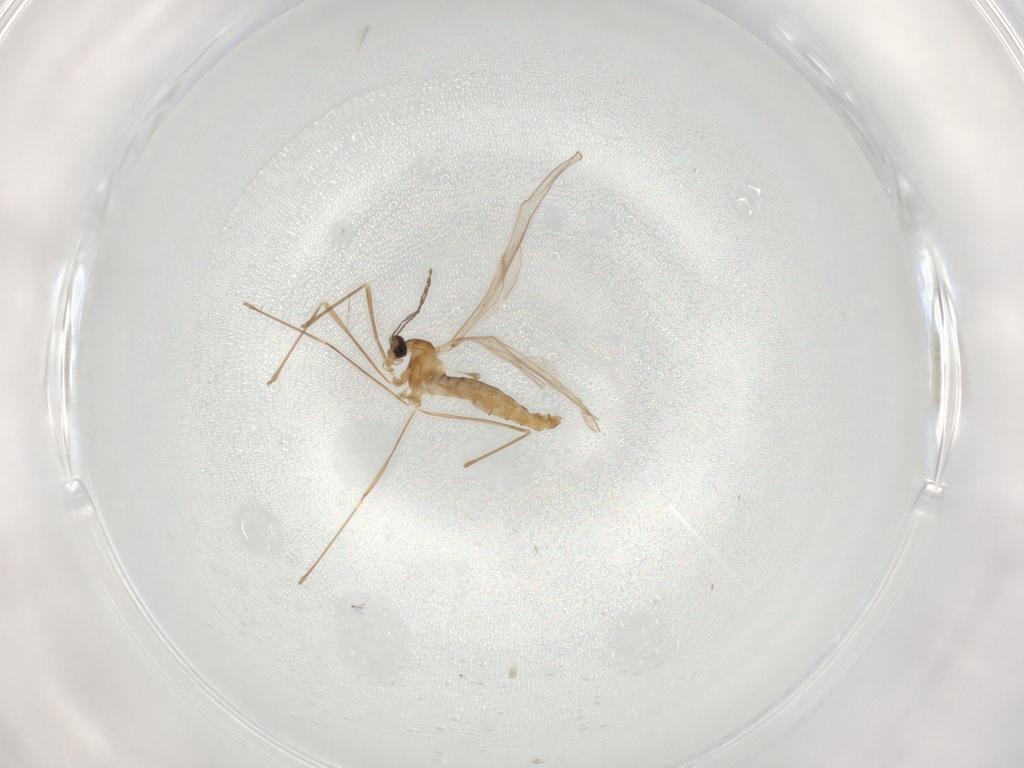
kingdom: Animalia
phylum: Arthropoda
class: Insecta
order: Diptera
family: Cecidomyiidae
